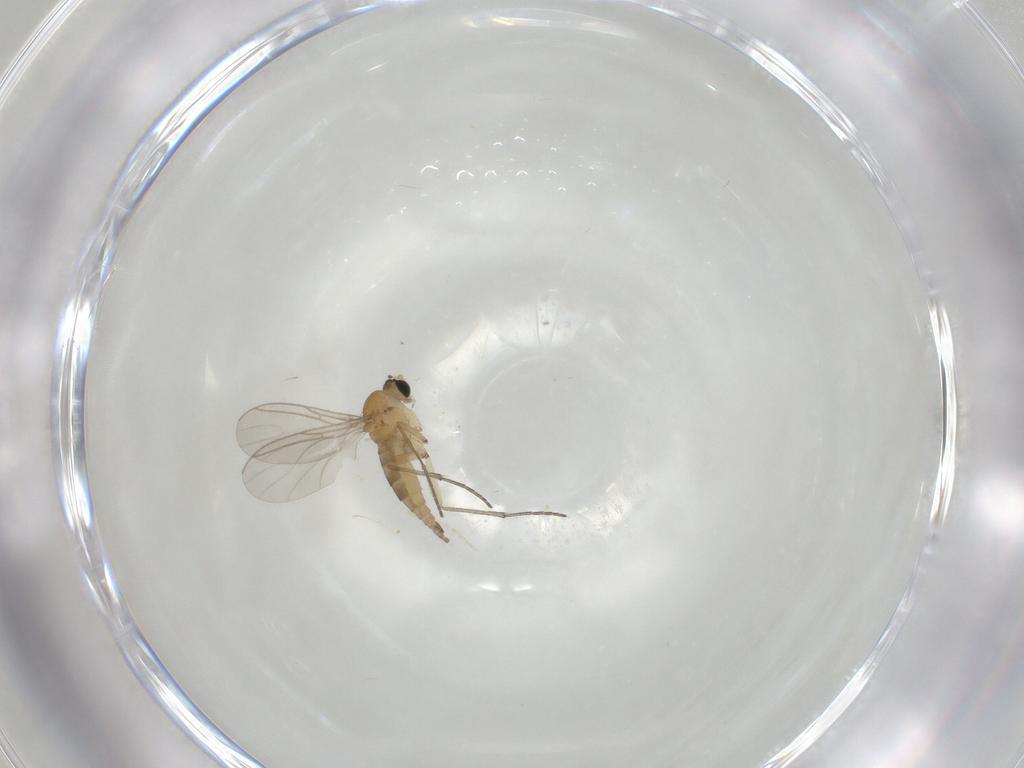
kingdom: Animalia
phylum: Arthropoda
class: Insecta
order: Diptera
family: Sciaridae
